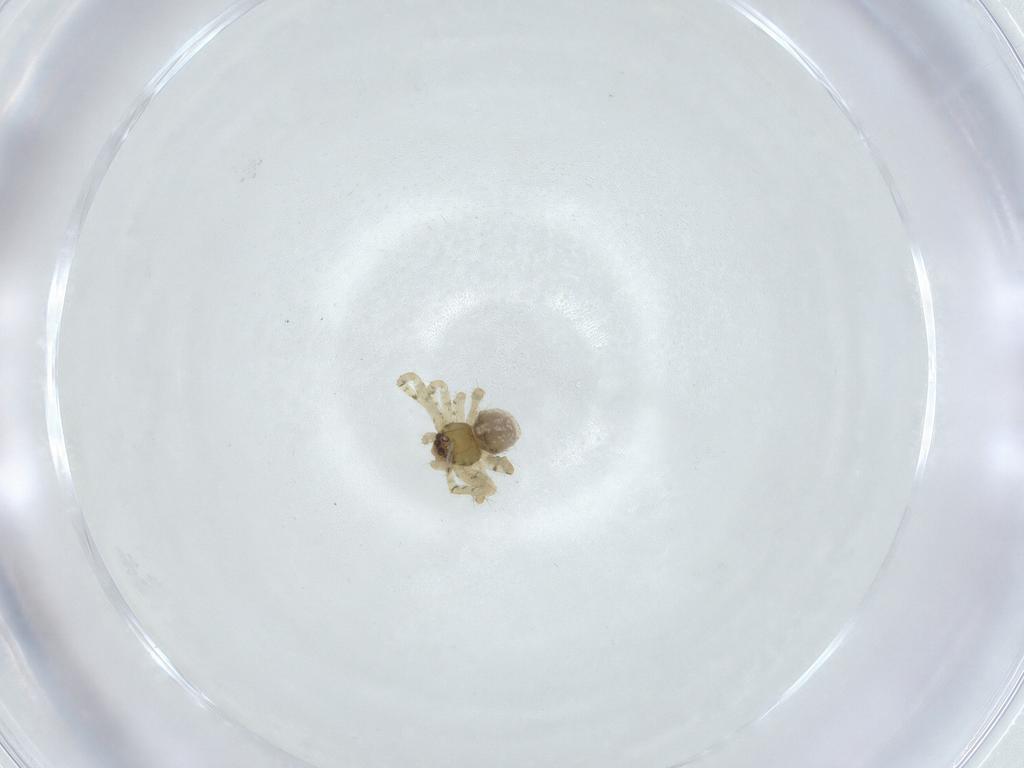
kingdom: Animalia
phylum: Arthropoda
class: Arachnida
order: Araneae
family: Theridiidae
